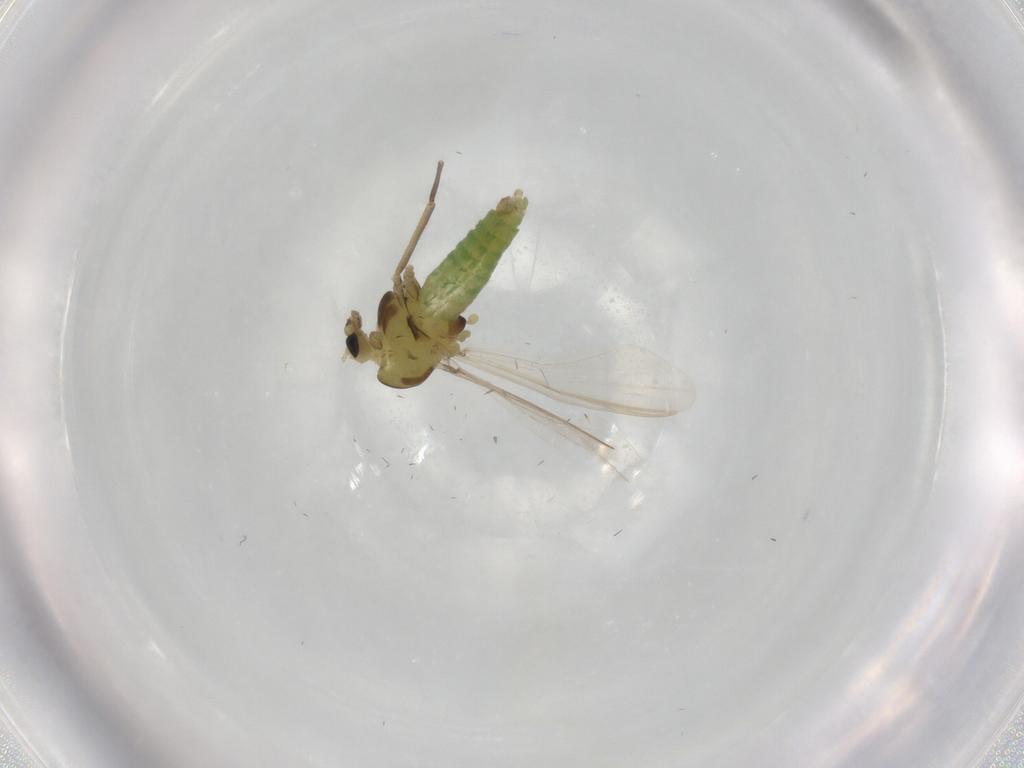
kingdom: Animalia
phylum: Arthropoda
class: Insecta
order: Diptera
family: Chironomidae
